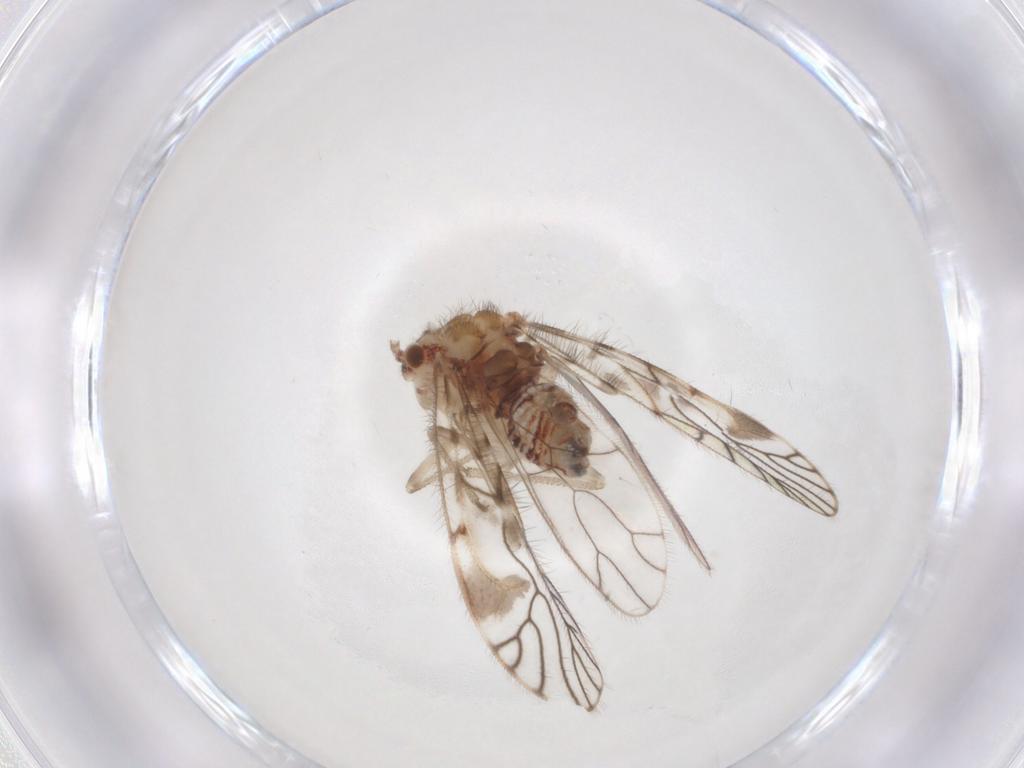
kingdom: Animalia
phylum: Arthropoda
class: Insecta
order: Psocodea
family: Amphipsocidae
